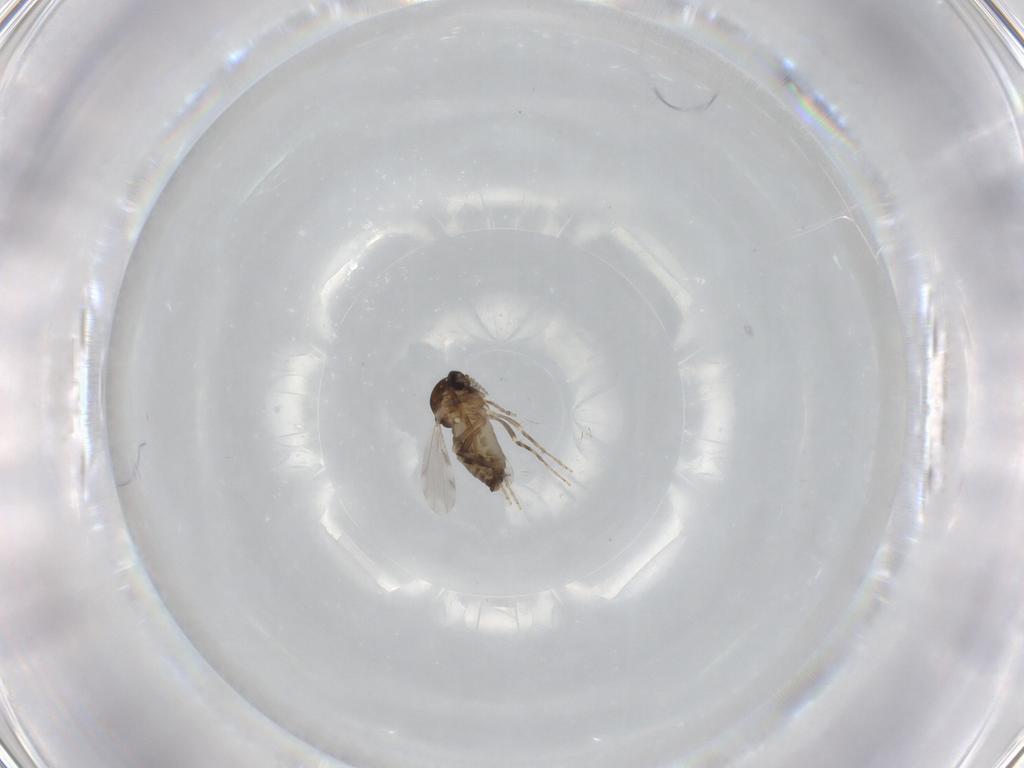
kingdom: Animalia
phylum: Arthropoda
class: Insecta
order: Diptera
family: Ceratopogonidae
